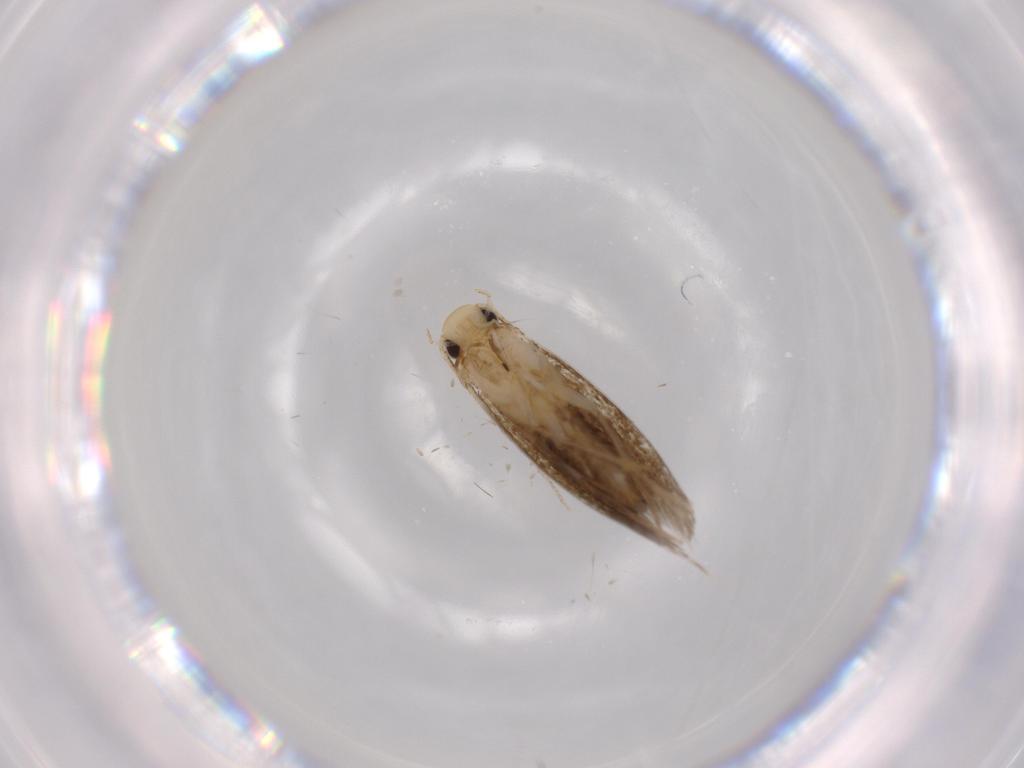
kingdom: Animalia
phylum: Arthropoda
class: Insecta
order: Lepidoptera
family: Tineidae
